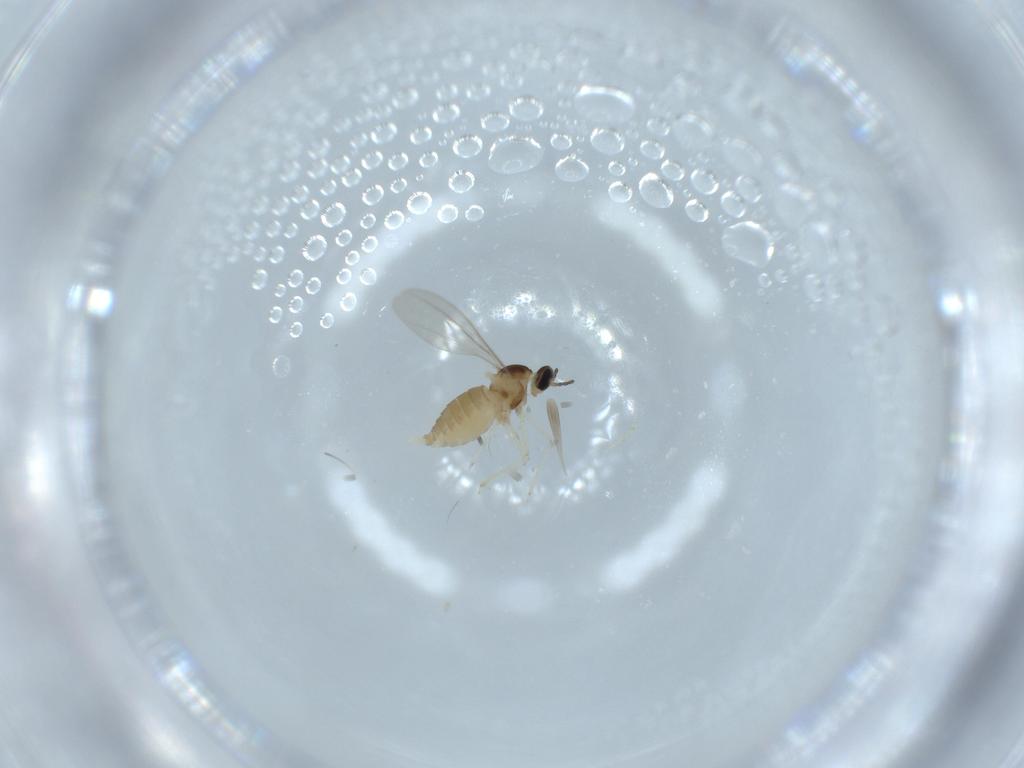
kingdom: Animalia
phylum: Arthropoda
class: Insecta
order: Diptera
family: Cecidomyiidae
